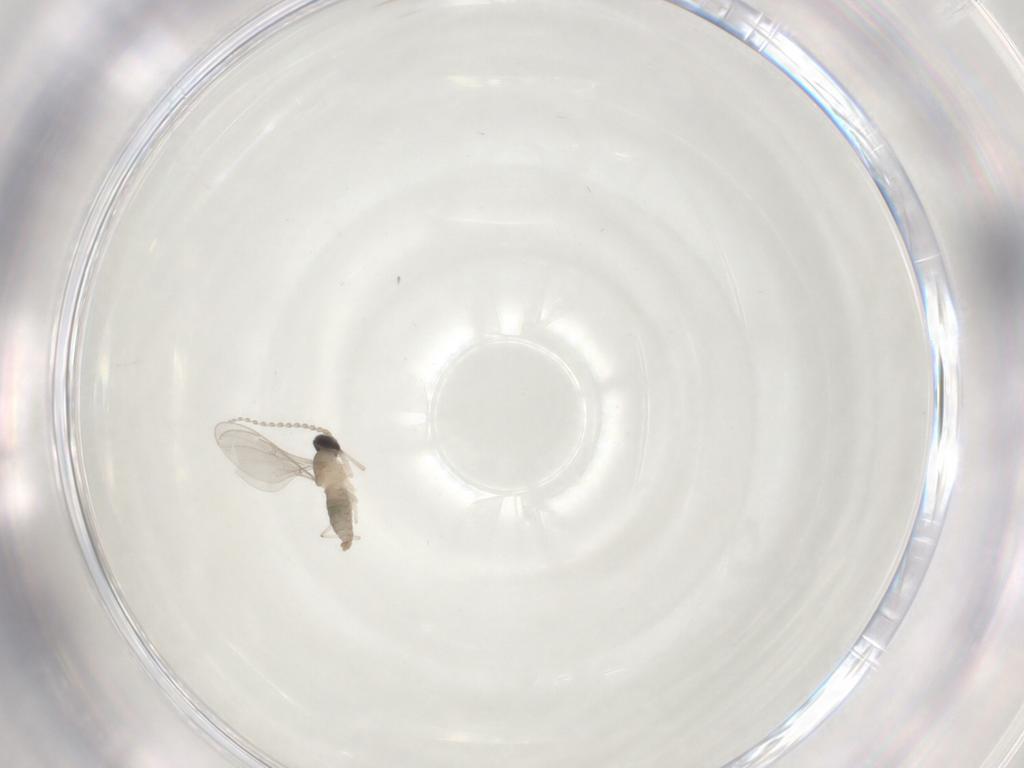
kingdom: Animalia
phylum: Arthropoda
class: Insecta
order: Diptera
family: Cecidomyiidae
